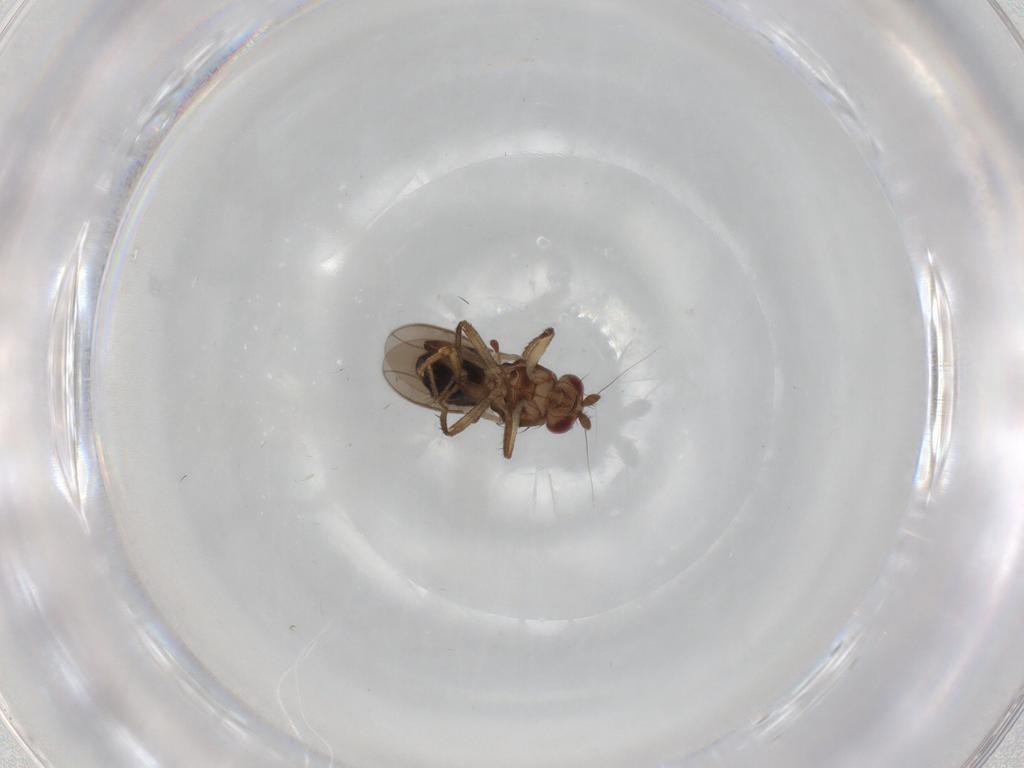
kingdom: Animalia
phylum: Arthropoda
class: Insecta
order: Diptera
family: Sphaeroceridae
